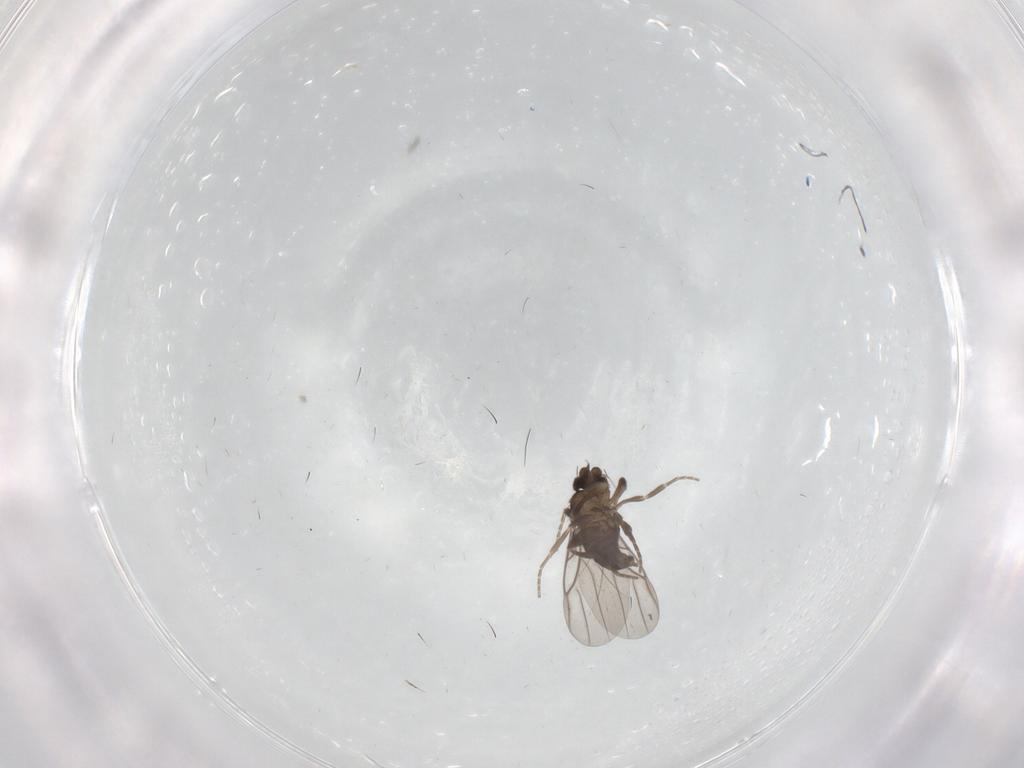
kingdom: Animalia
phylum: Arthropoda
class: Insecta
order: Diptera
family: Cecidomyiidae
